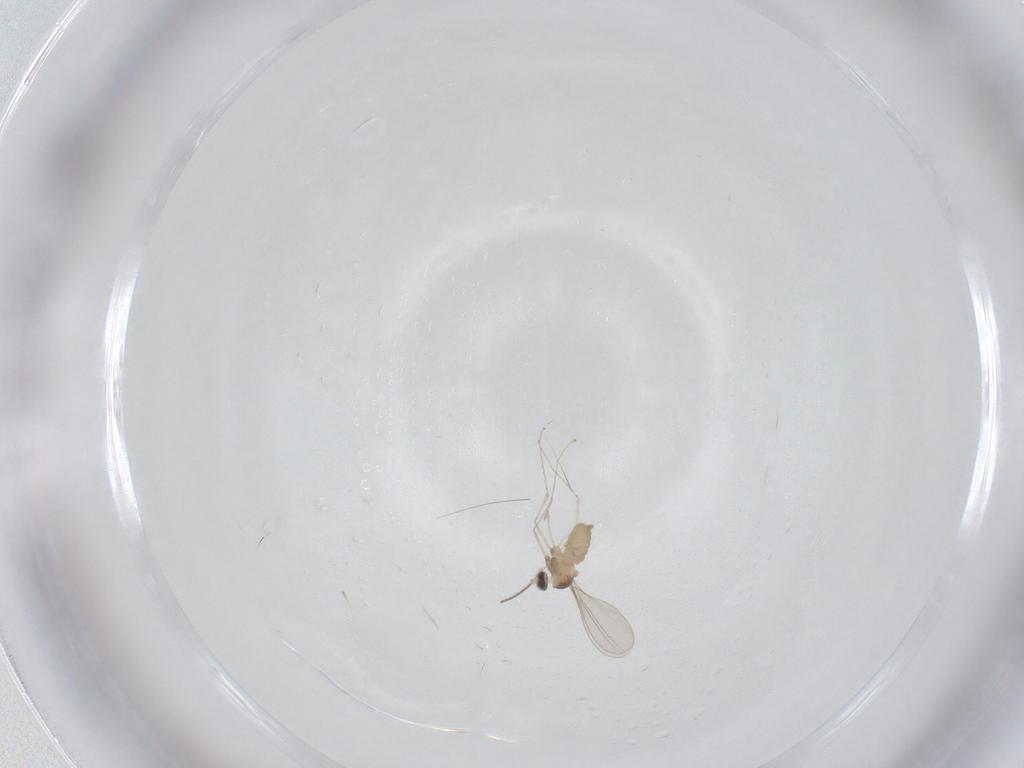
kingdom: Animalia
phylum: Arthropoda
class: Insecta
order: Diptera
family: Cecidomyiidae
